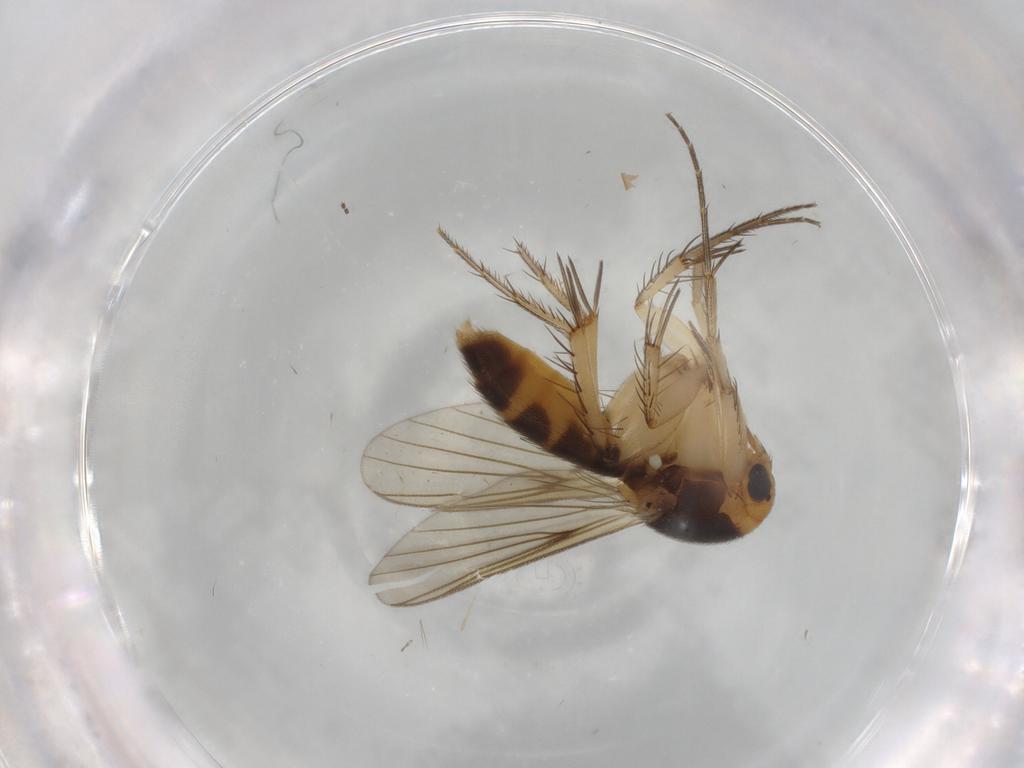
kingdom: Animalia
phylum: Arthropoda
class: Insecta
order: Diptera
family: Mycetophilidae
